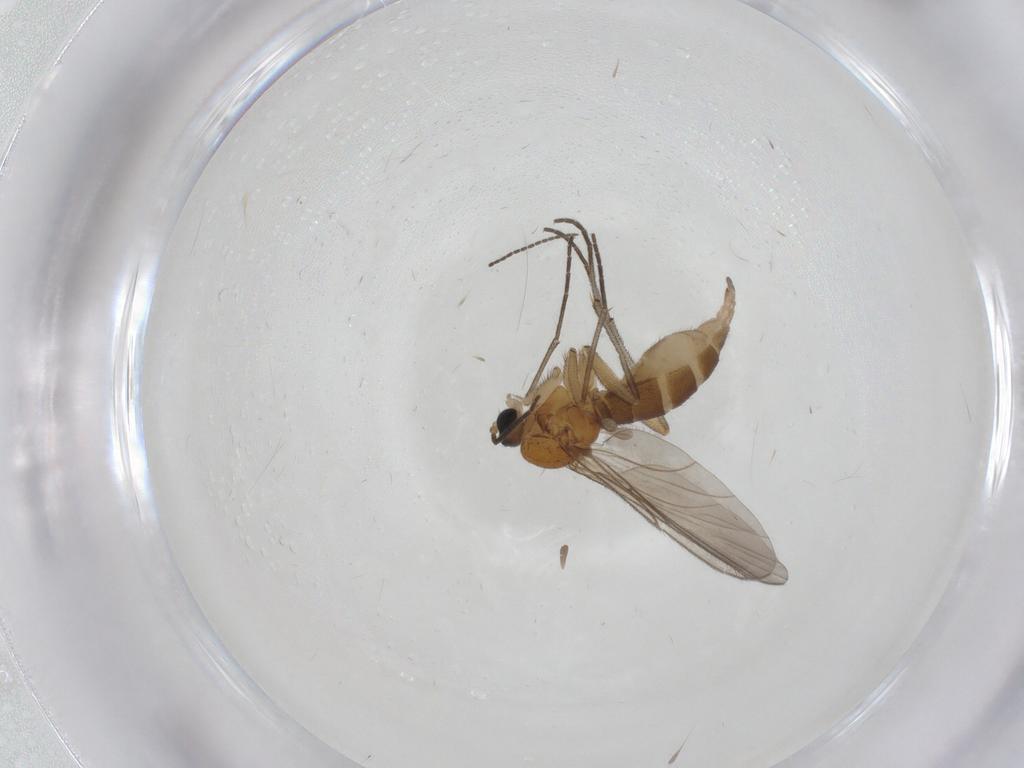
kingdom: Animalia
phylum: Arthropoda
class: Insecta
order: Diptera
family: Sciaridae
